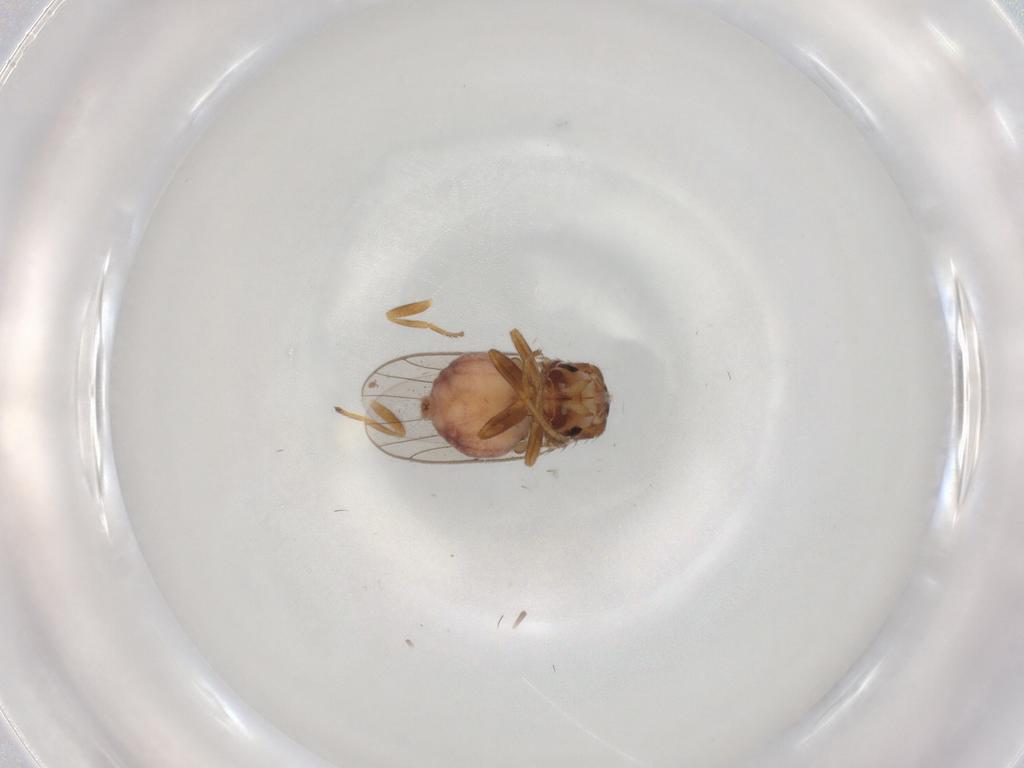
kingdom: Animalia
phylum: Arthropoda
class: Insecta
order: Diptera
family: Chloropidae
